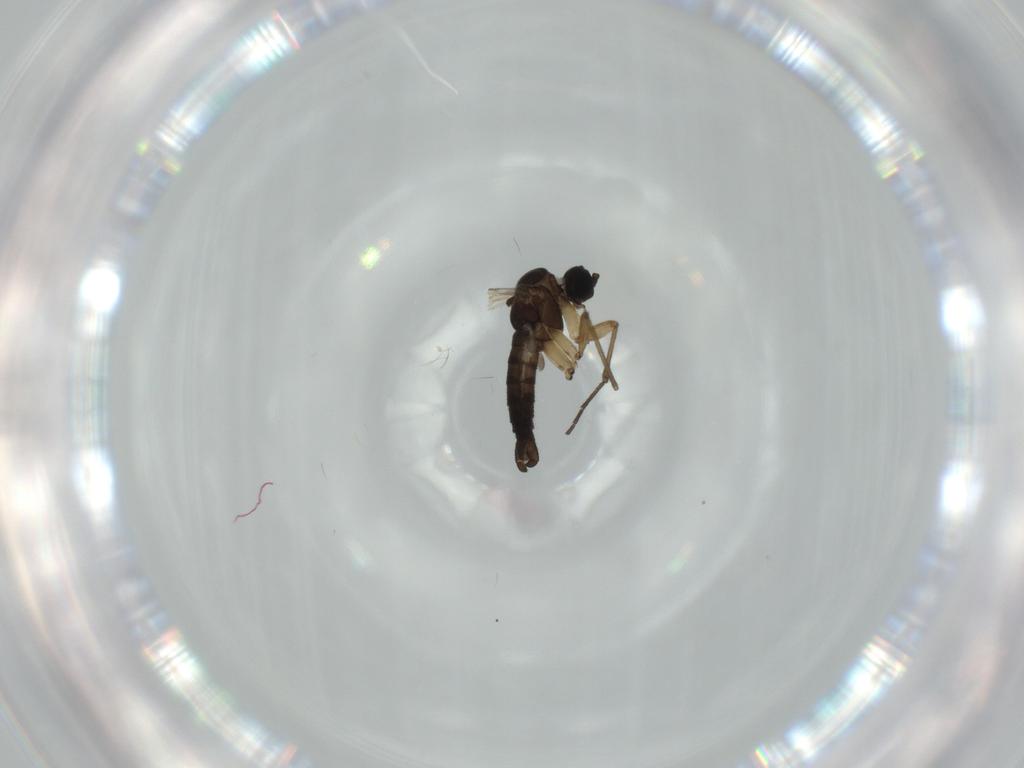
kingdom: Animalia
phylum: Arthropoda
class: Insecta
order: Diptera
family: Sciaridae
